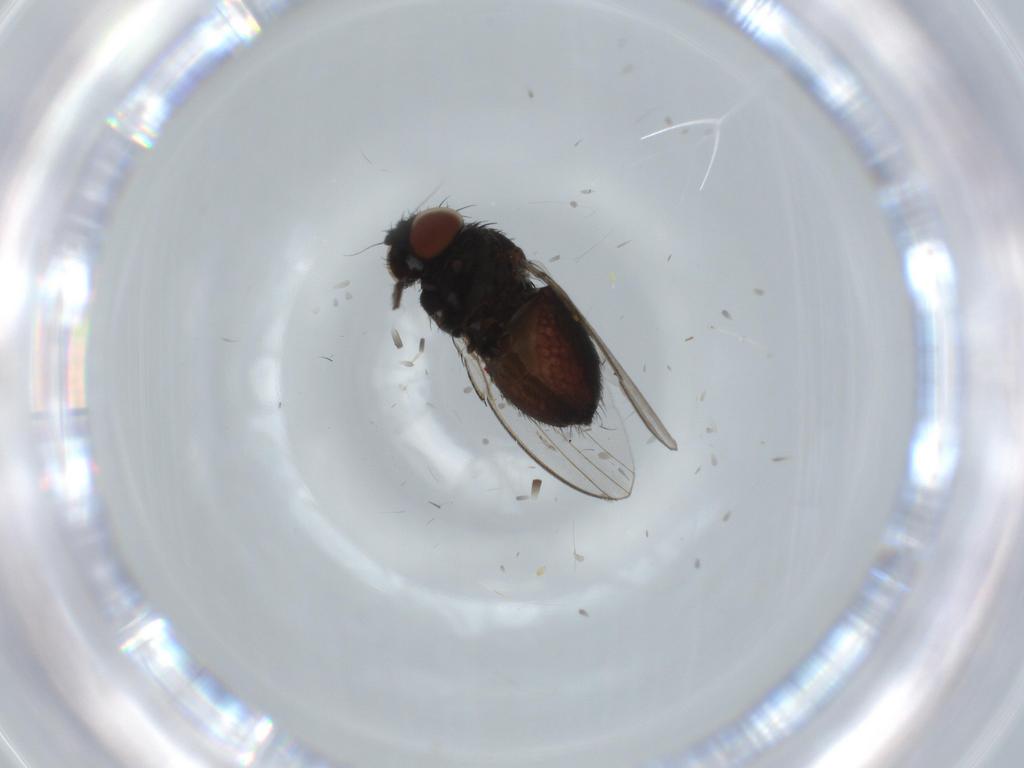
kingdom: Animalia
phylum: Arthropoda
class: Insecta
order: Diptera
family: Milichiidae
